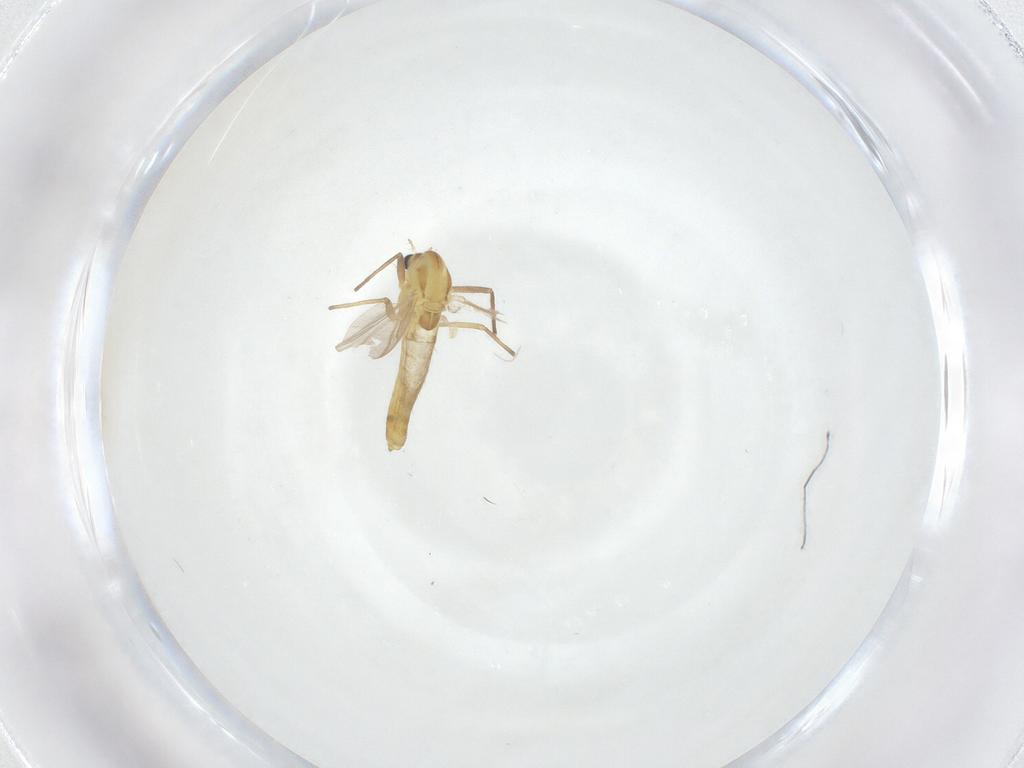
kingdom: Animalia
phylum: Arthropoda
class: Insecta
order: Diptera
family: Chironomidae
